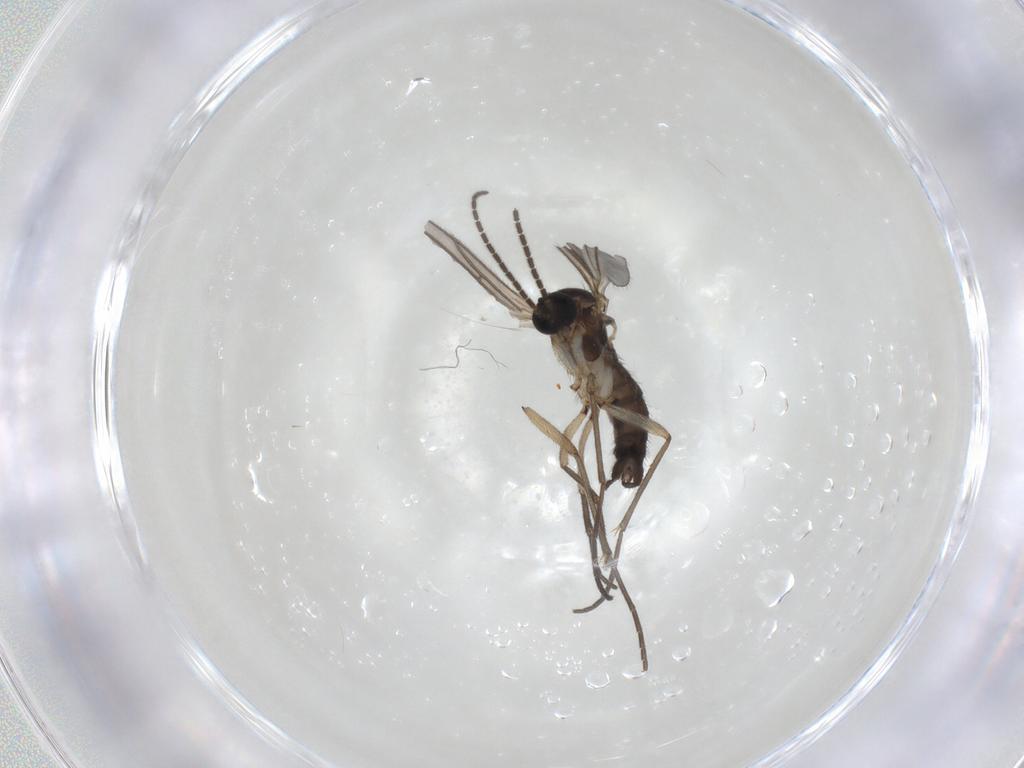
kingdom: Animalia
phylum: Arthropoda
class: Insecta
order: Diptera
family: Sciaridae
